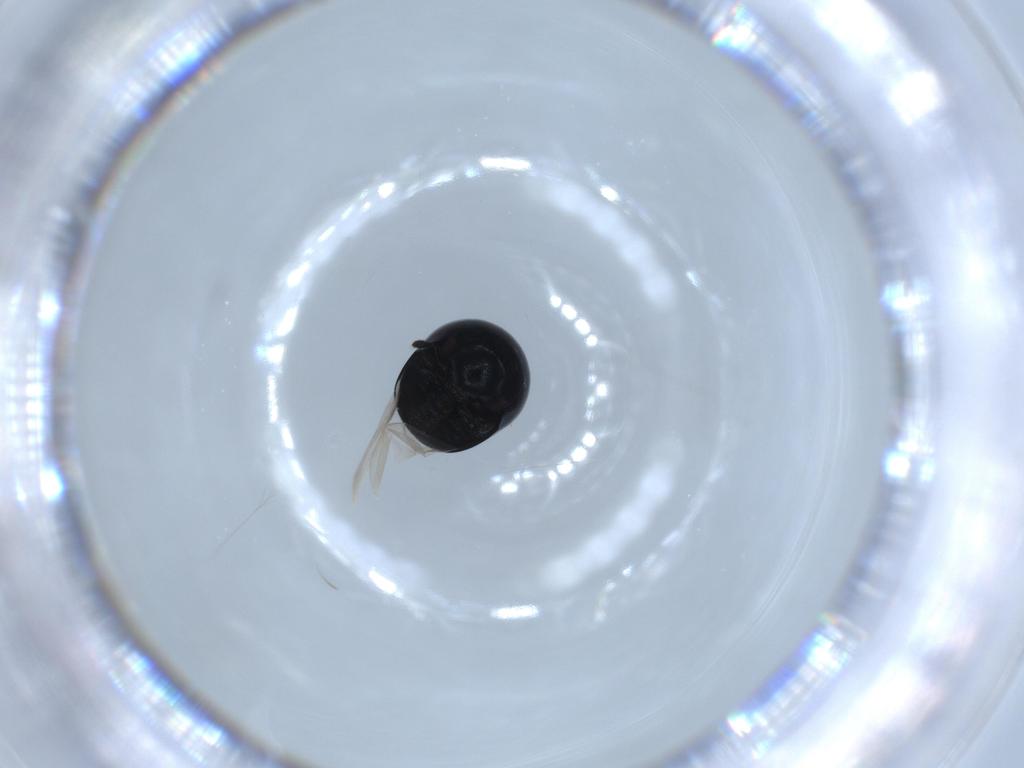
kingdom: Animalia
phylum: Arthropoda
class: Insecta
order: Coleoptera
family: Cybocephalidae
